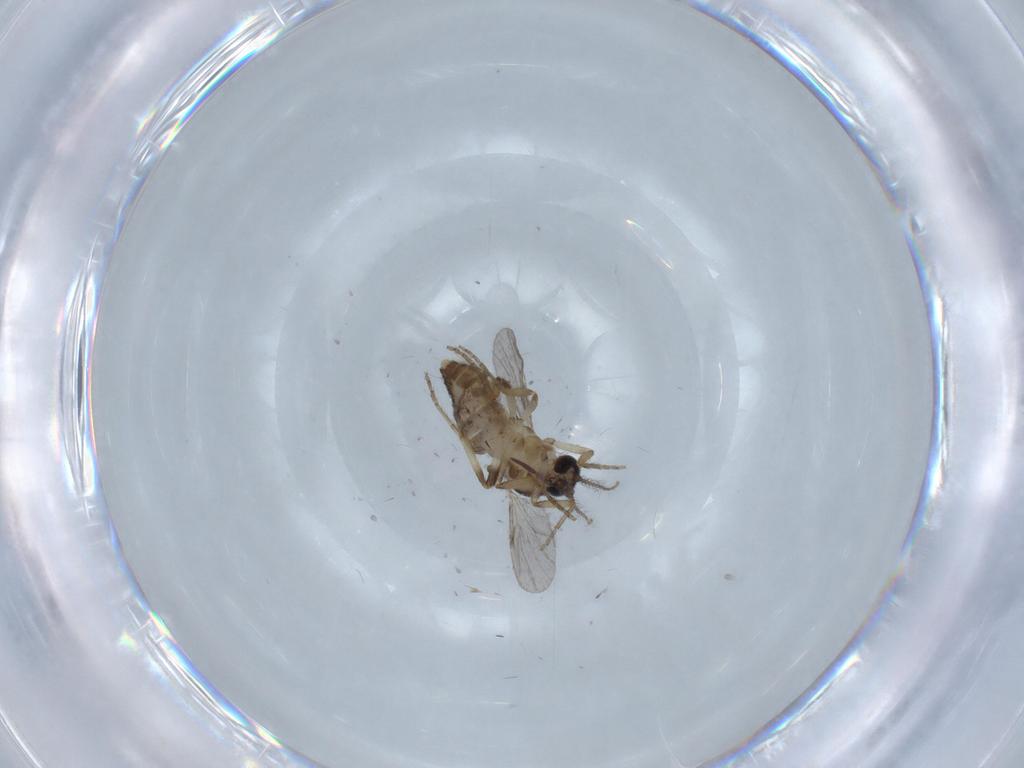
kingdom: Animalia
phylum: Arthropoda
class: Insecta
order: Diptera
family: Ceratopogonidae
